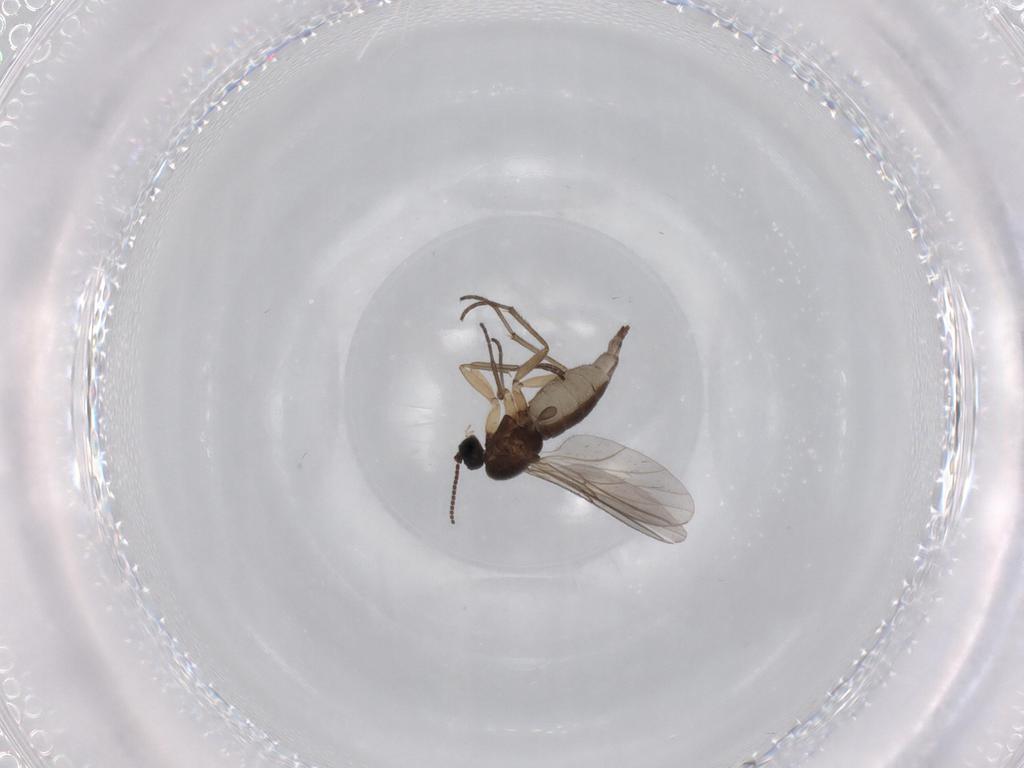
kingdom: Animalia
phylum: Arthropoda
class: Insecta
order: Diptera
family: Sciaridae
